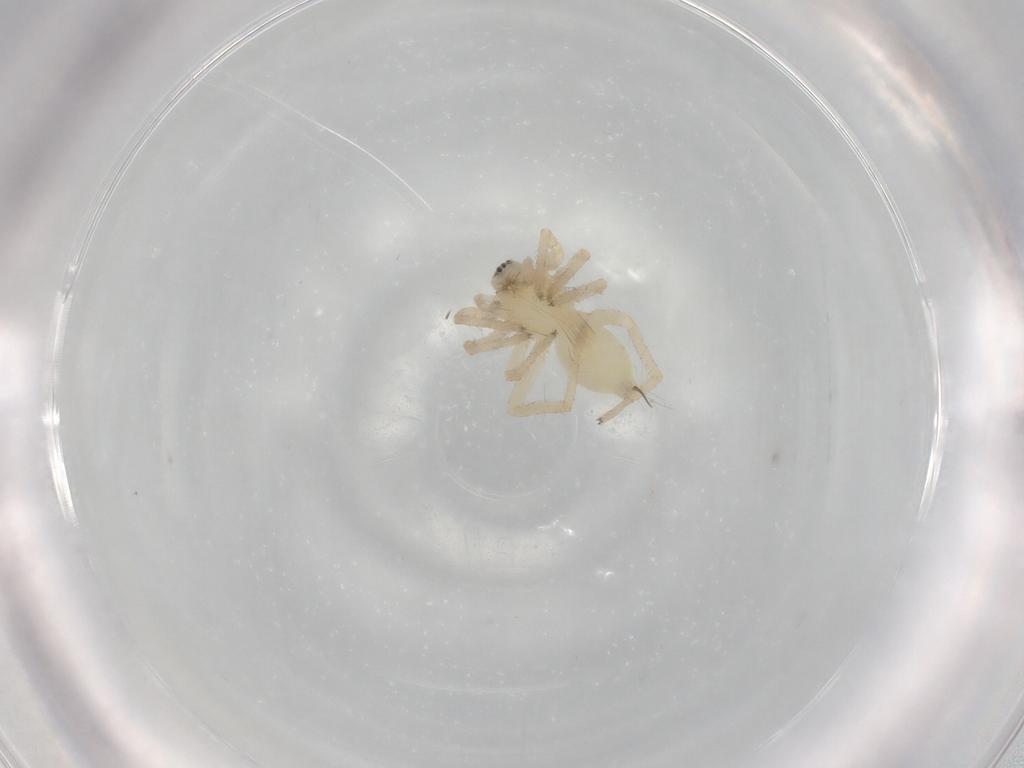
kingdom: Animalia
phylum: Arthropoda
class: Arachnida
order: Araneae
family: Anyphaenidae
